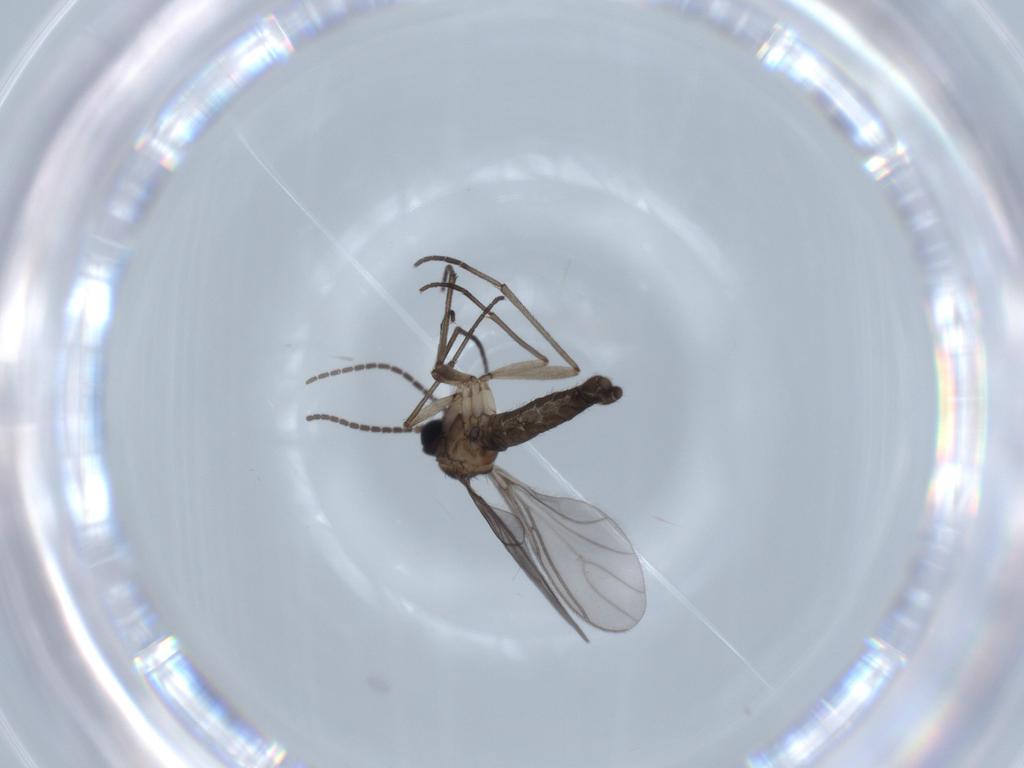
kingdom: Animalia
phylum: Arthropoda
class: Insecta
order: Diptera
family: Sciaridae
